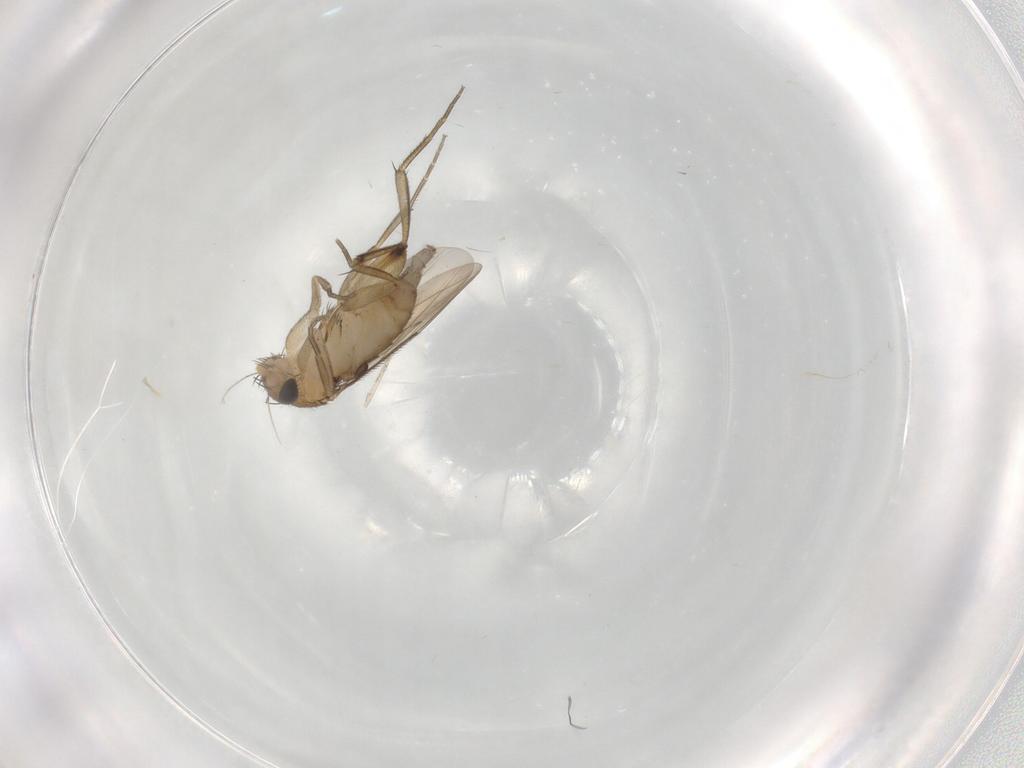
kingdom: Animalia
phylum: Arthropoda
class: Insecta
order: Diptera
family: Phoridae
